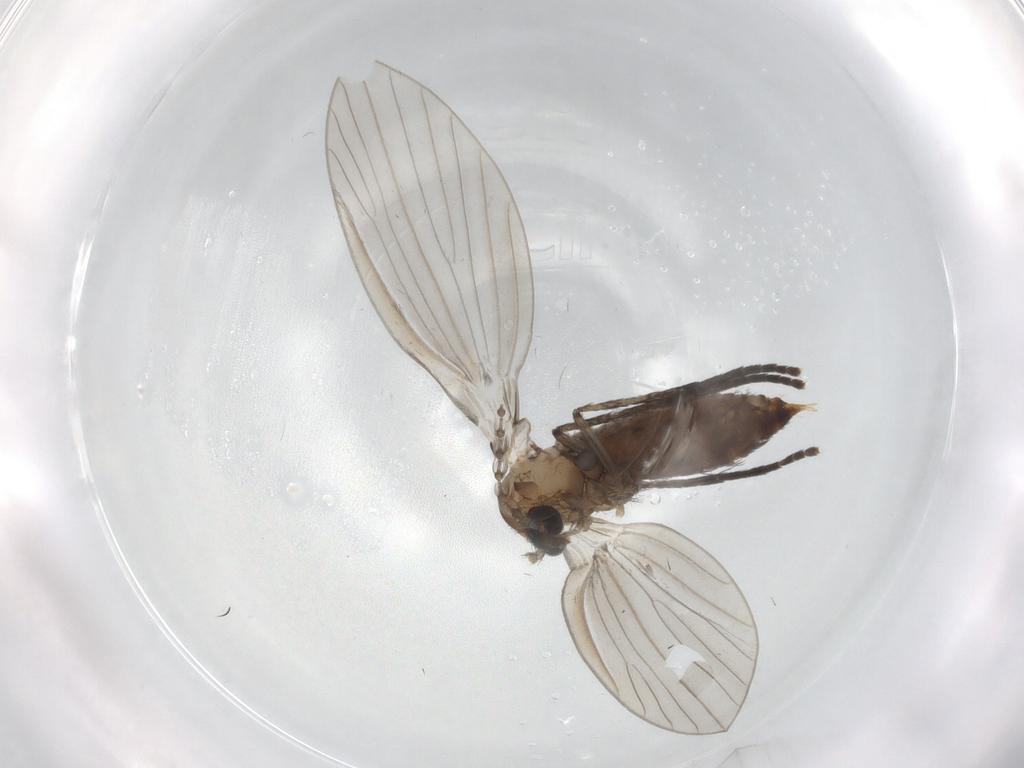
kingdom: Animalia
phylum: Arthropoda
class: Insecta
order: Diptera
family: Psychodidae
